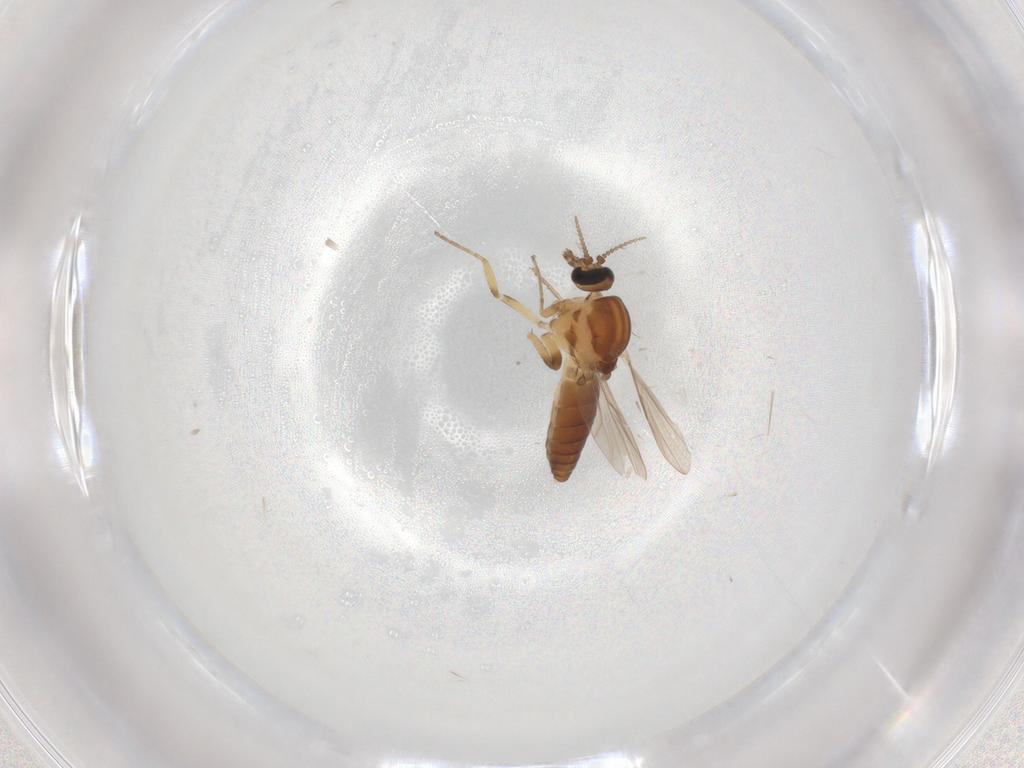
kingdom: Animalia
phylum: Arthropoda
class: Insecta
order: Diptera
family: Ceratopogonidae
